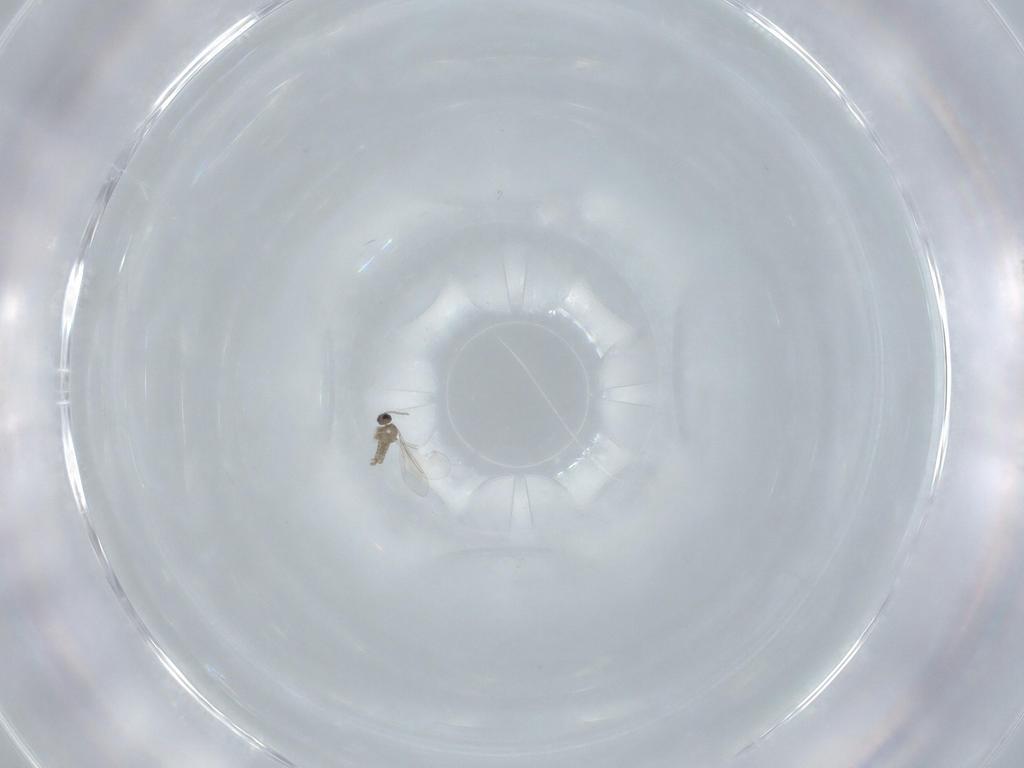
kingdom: Animalia
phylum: Arthropoda
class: Insecta
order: Diptera
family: Cecidomyiidae
